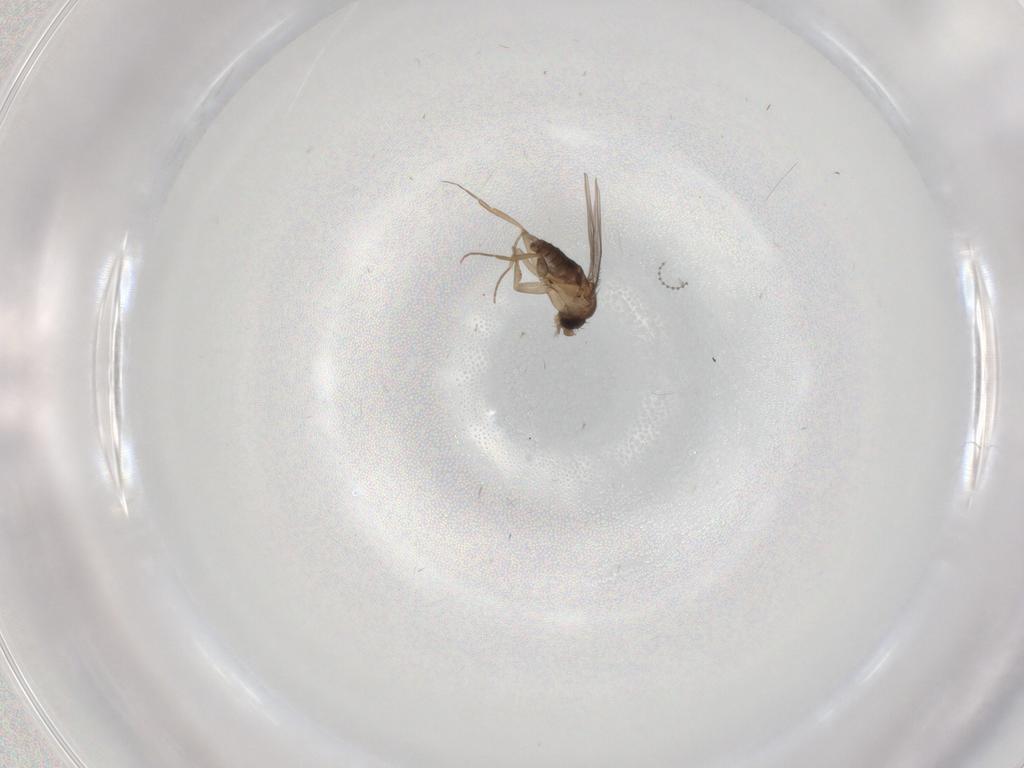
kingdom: Animalia
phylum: Arthropoda
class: Insecta
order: Diptera
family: Cecidomyiidae
